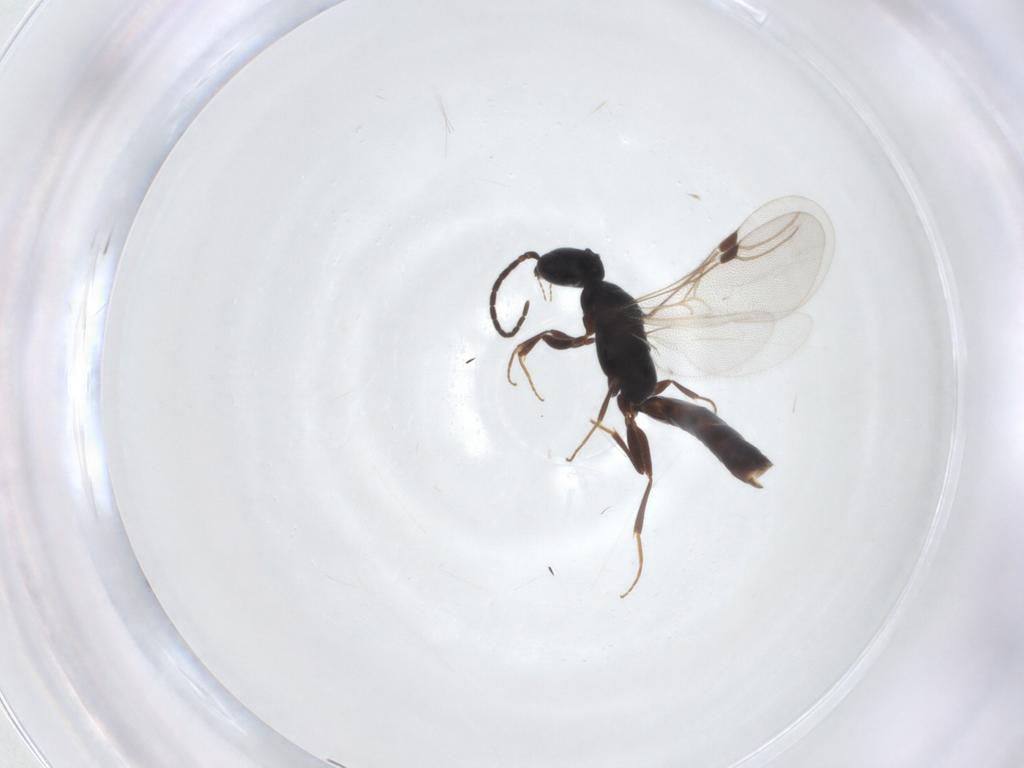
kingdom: Animalia
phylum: Arthropoda
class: Insecta
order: Hymenoptera
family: Bethylidae
